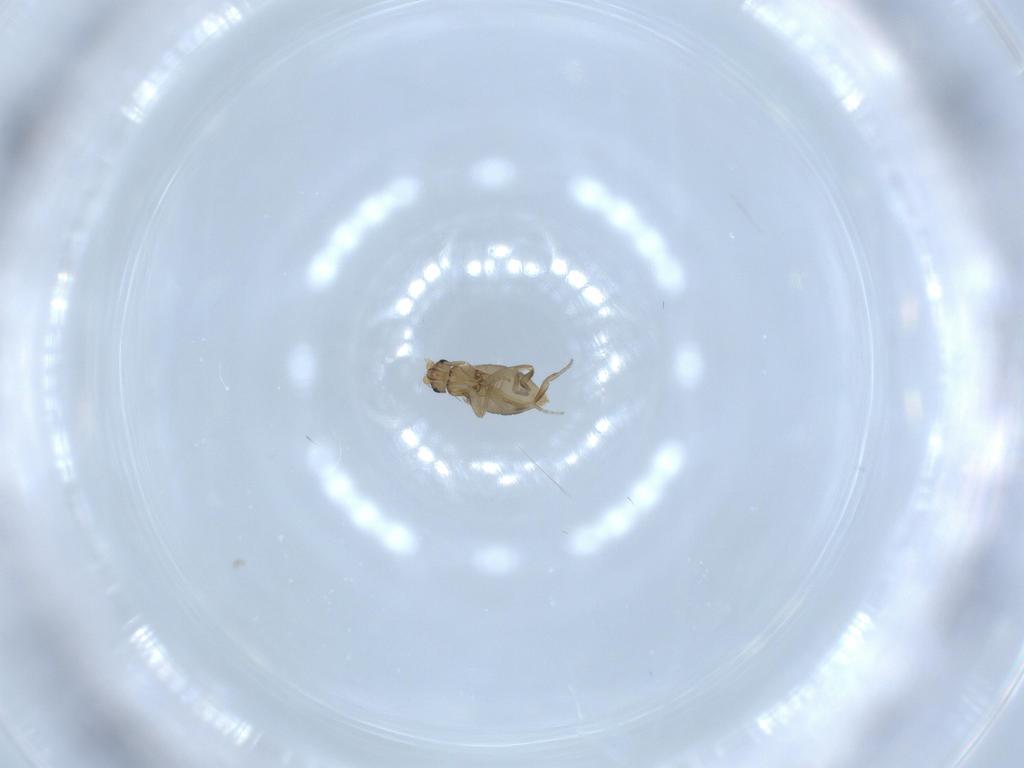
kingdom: Animalia
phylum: Arthropoda
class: Insecta
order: Diptera
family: Phoridae
